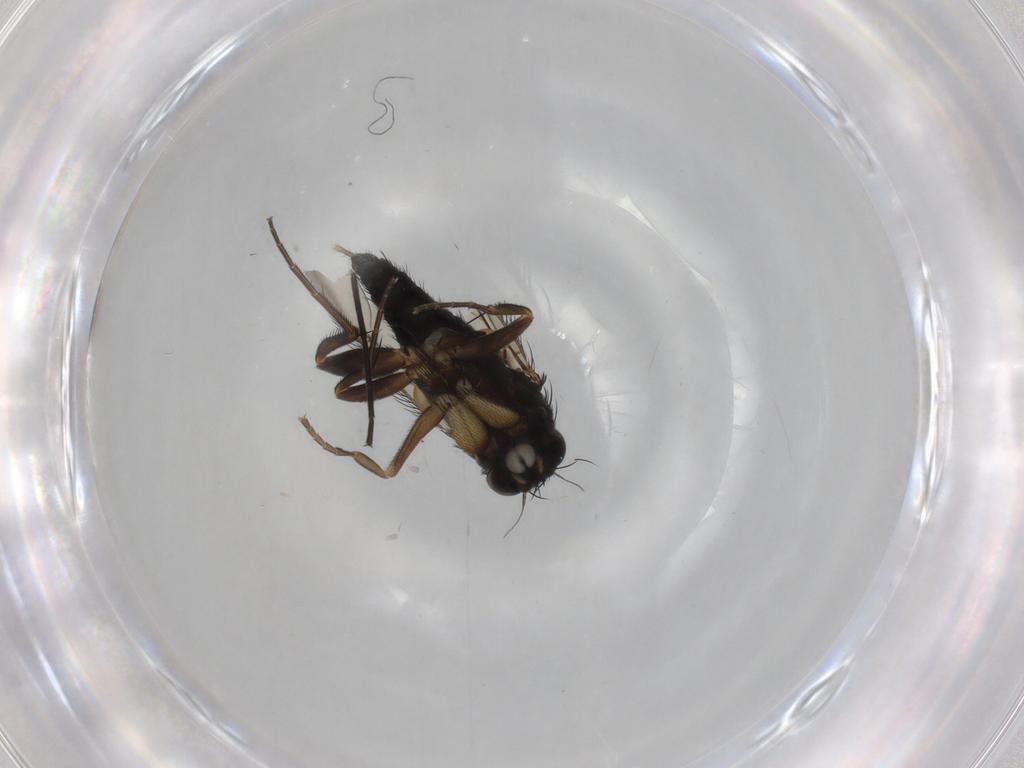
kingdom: Animalia
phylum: Arthropoda
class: Insecta
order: Diptera
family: Phoridae
